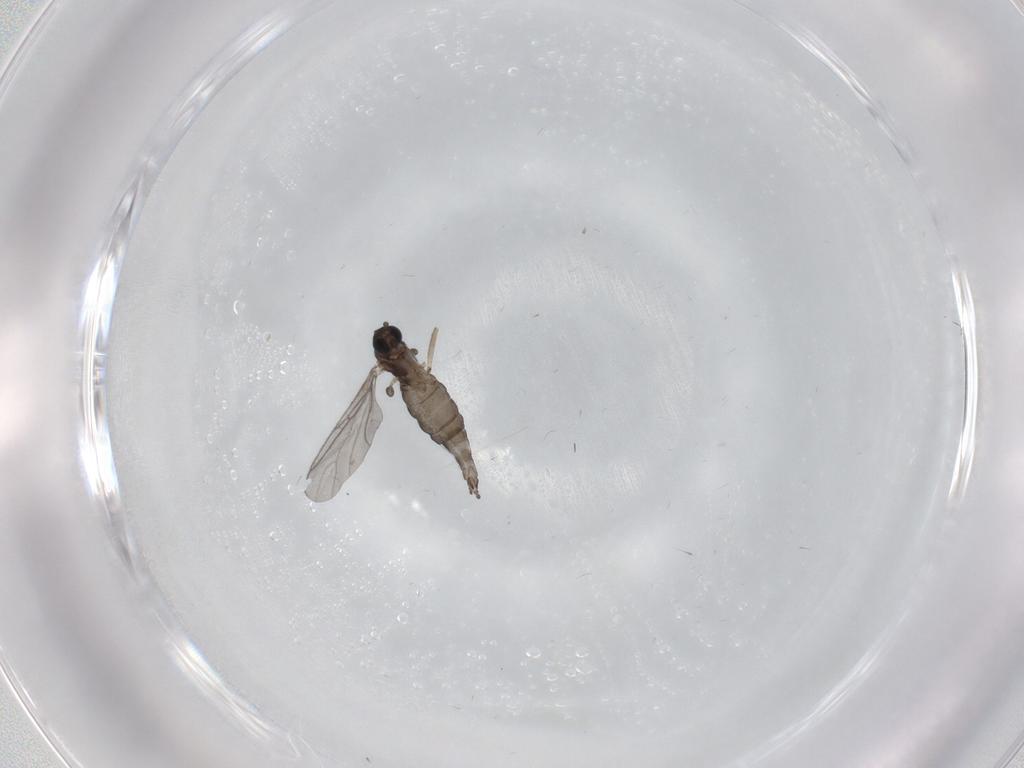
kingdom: Animalia
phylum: Arthropoda
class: Insecta
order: Diptera
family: Psychodidae
